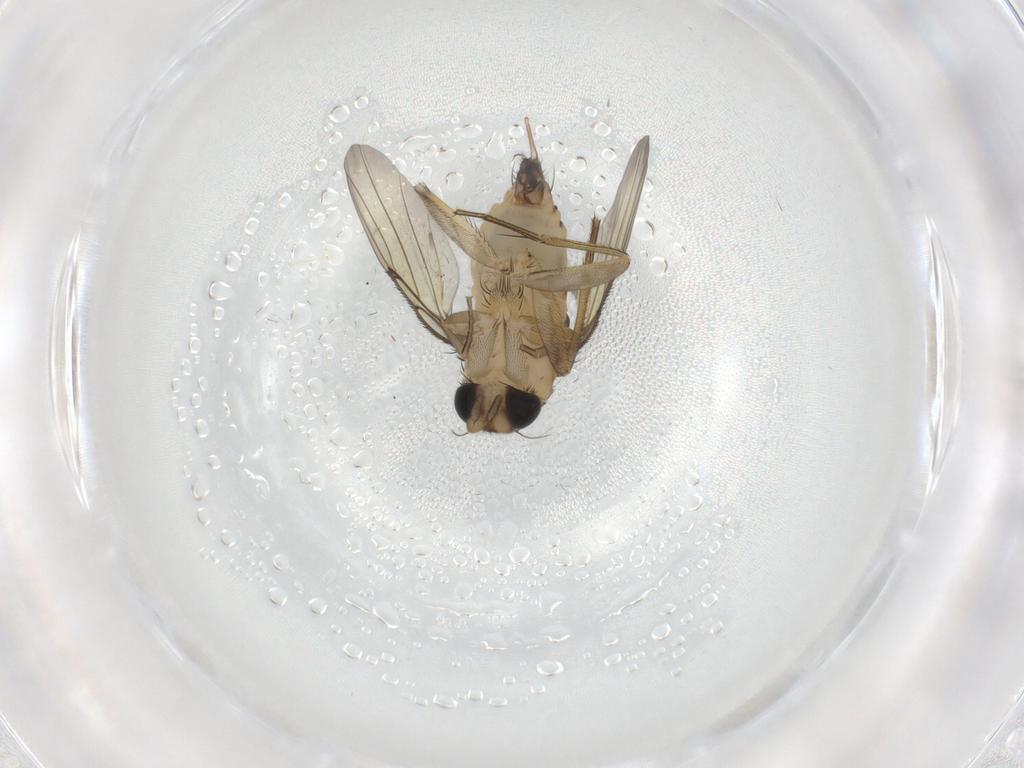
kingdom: Animalia
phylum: Arthropoda
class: Insecta
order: Diptera
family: Phoridae
